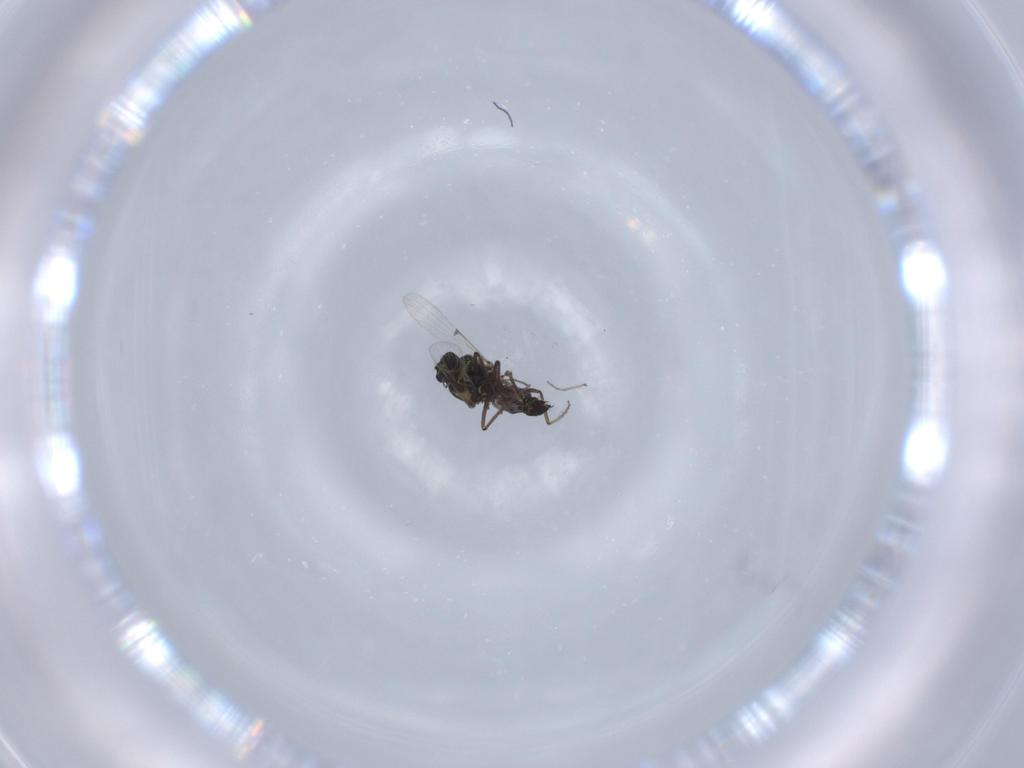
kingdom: Animalia
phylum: Arthropoda
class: Insecta
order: Diptera
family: Ceratopogonidae
